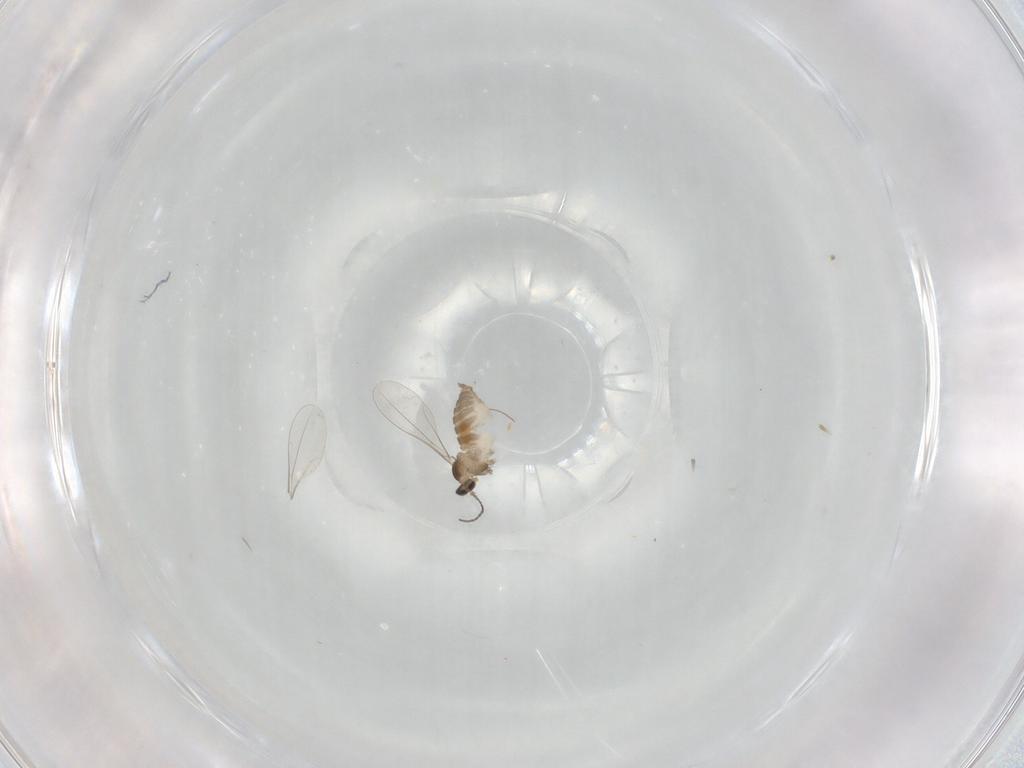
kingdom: Animalia
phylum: Arthropoda
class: Insecta
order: Diptera
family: Cecidomyiidae
